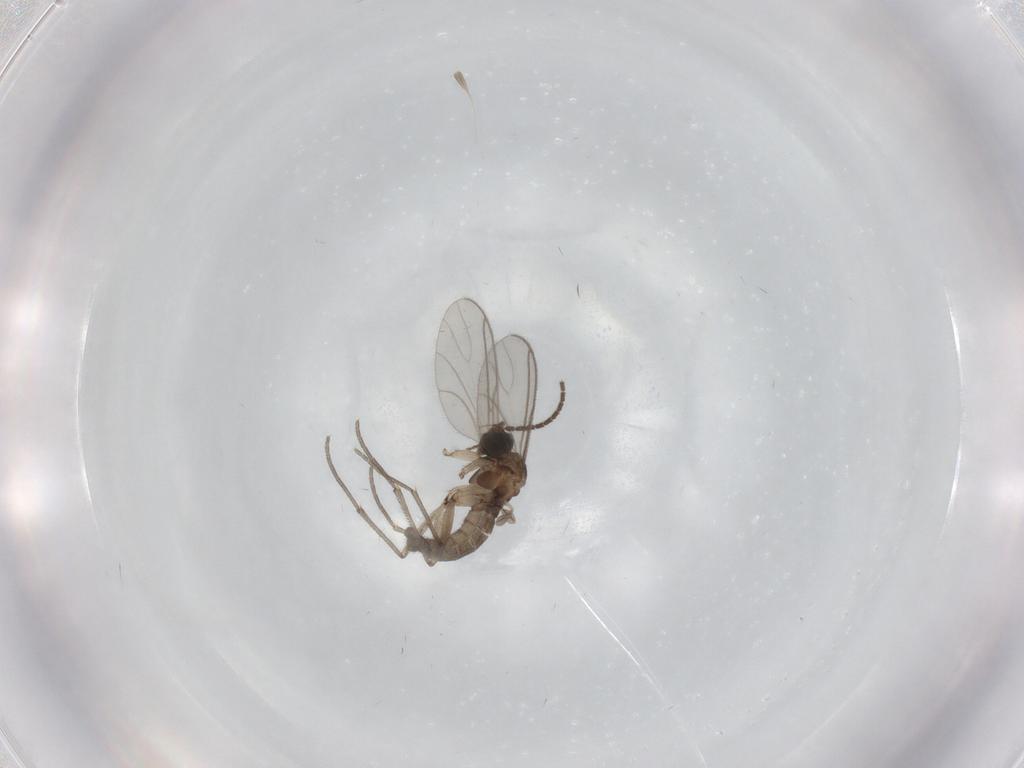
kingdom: Animalia
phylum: Arthropoda
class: Insecta
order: Diptera
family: Sciaridae
